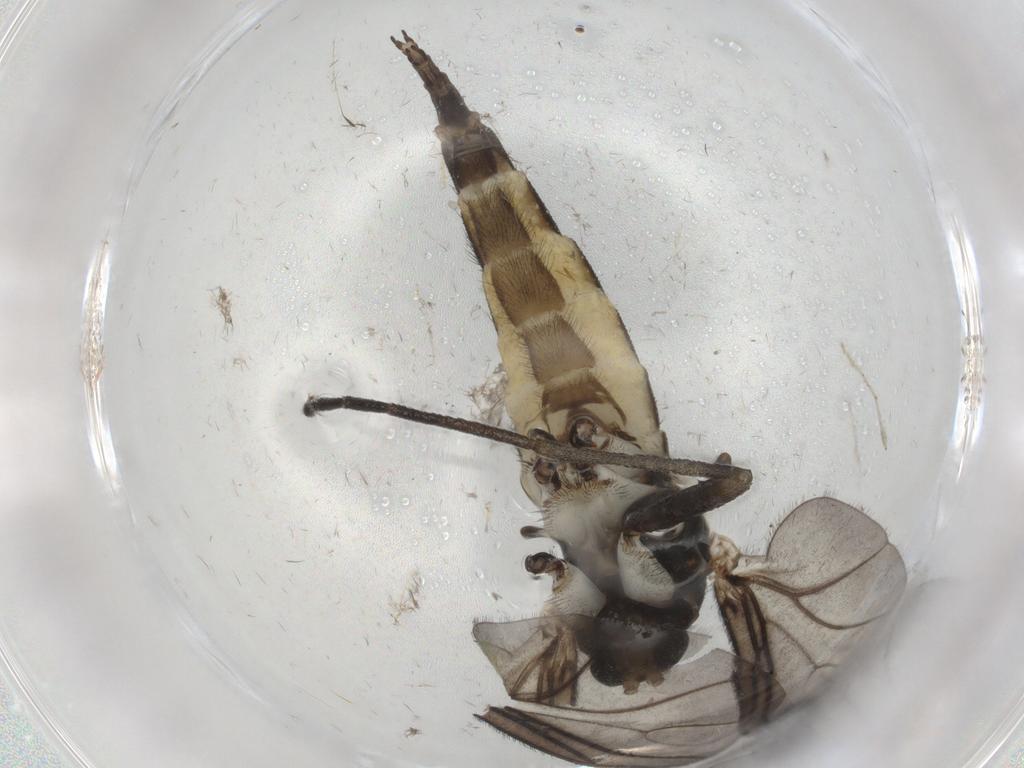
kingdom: Animalia
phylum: Arthropoda
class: Insecta
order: Diptera
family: Sciaridae
